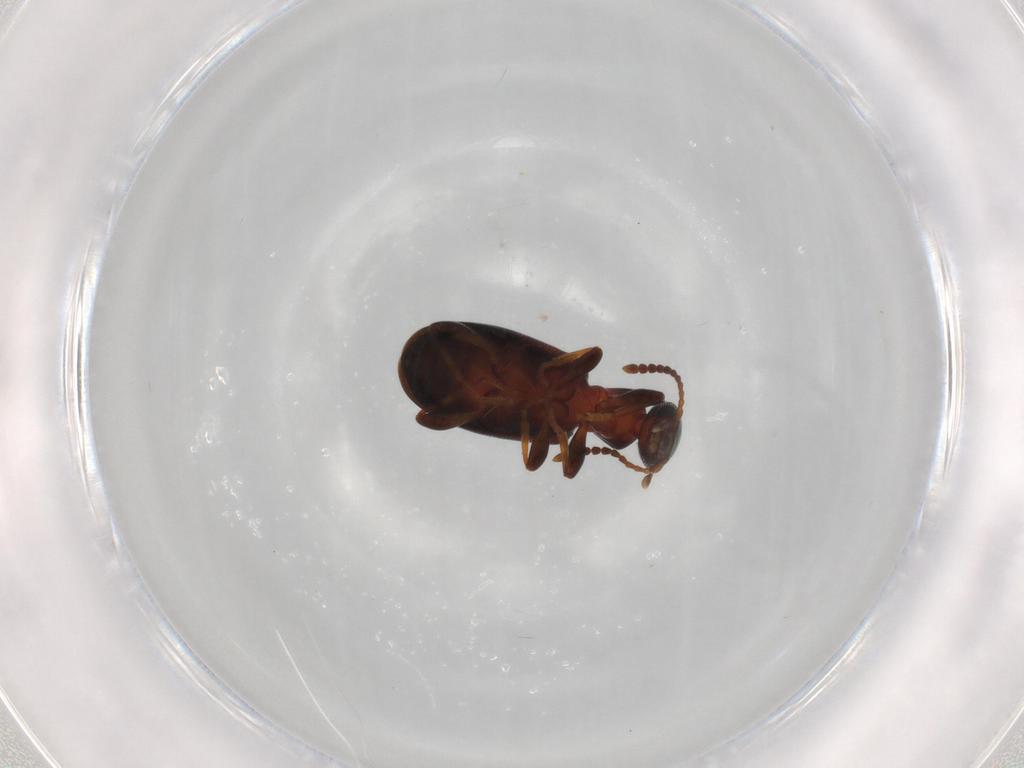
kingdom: Animalia
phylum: Arthropoda
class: Insecta
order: Coleoptera
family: Anthicidae
